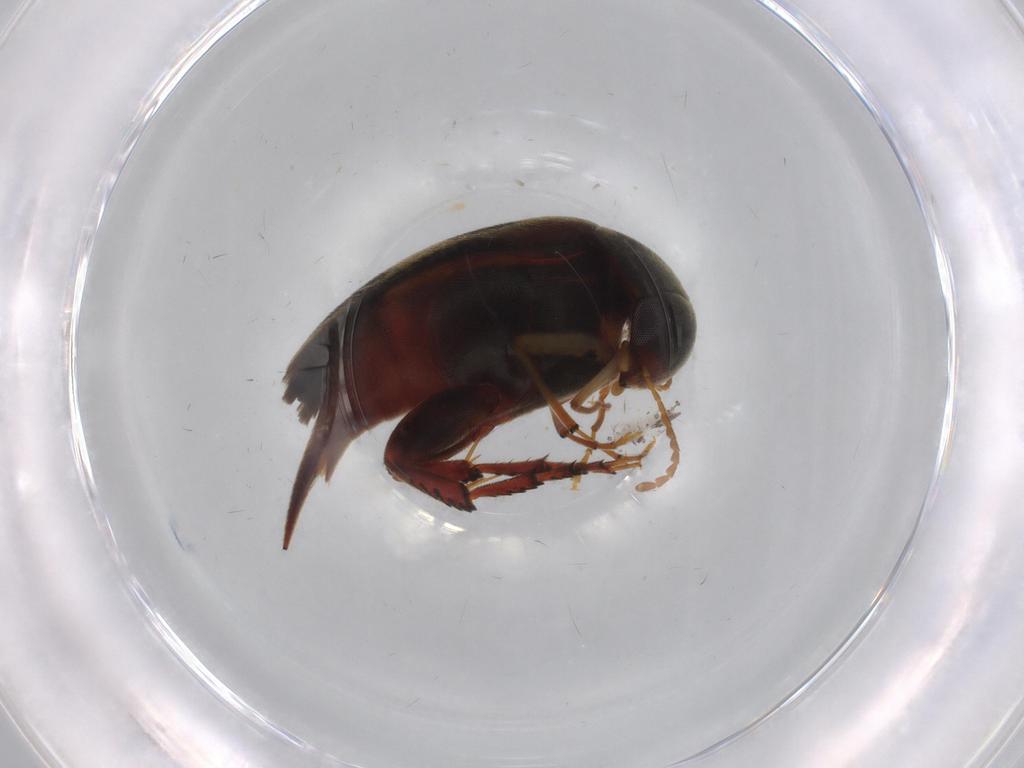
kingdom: Animalia
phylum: Arthropoda
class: Insecta
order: Coleoptera
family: Mordellidae
